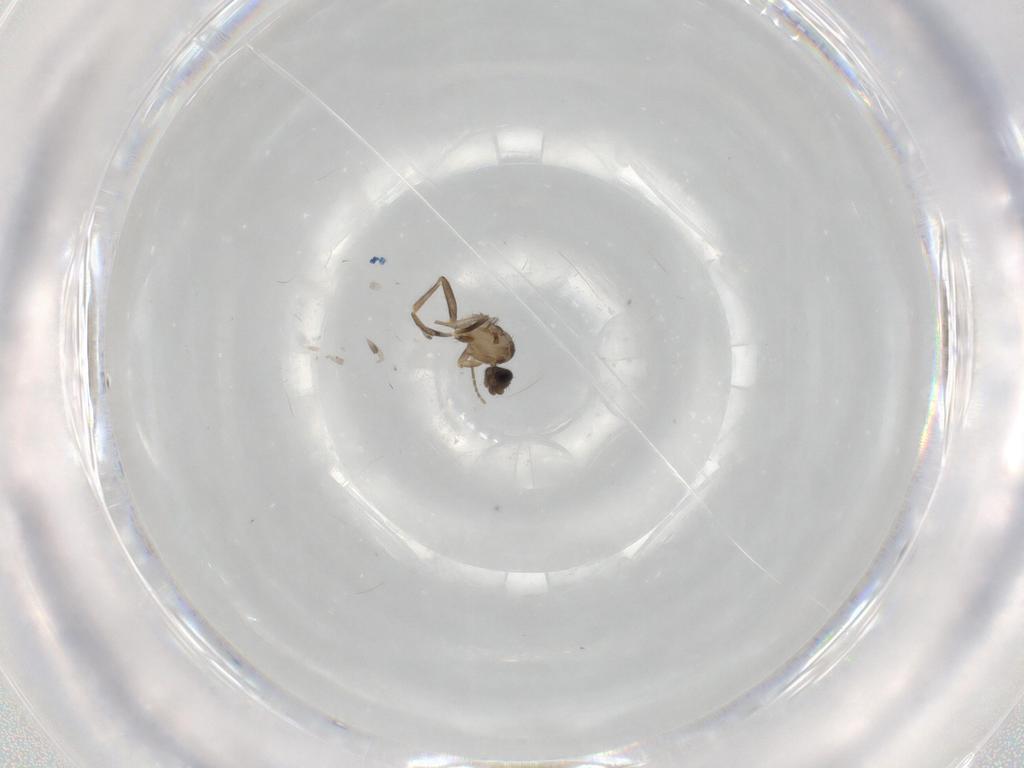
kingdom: Animalia
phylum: Arthropoda
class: Insecta
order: Diptera
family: Phoridae
